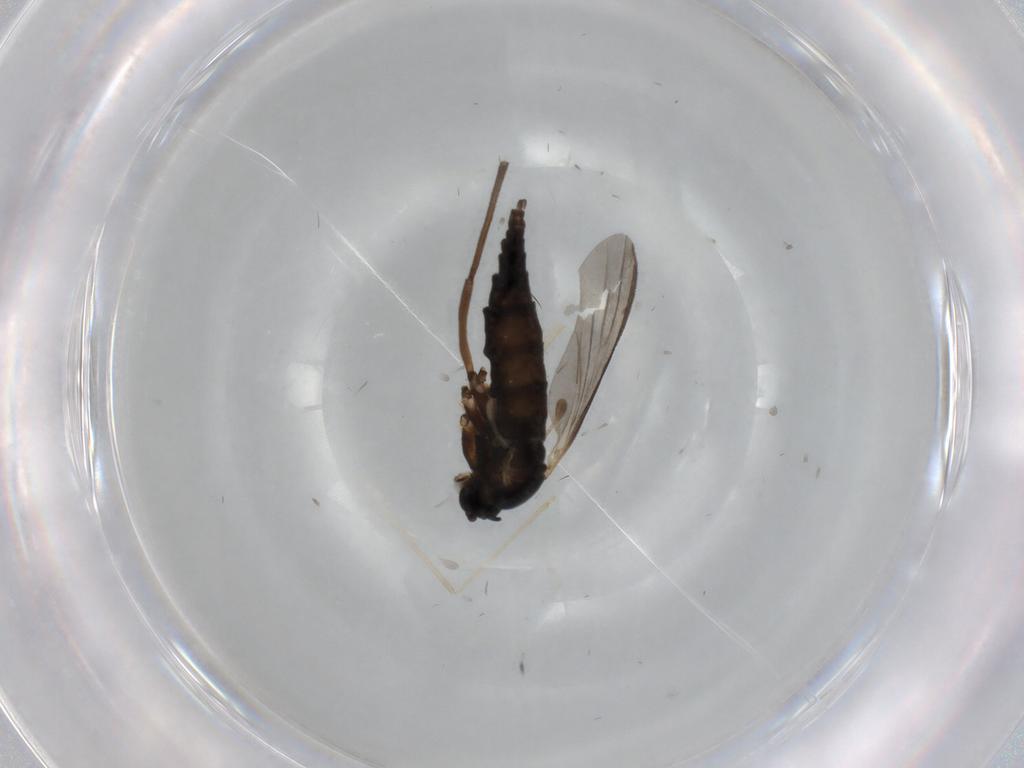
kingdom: Animalia
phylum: Arthropoda
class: Insecta
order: Diptera
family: Sciaridae
